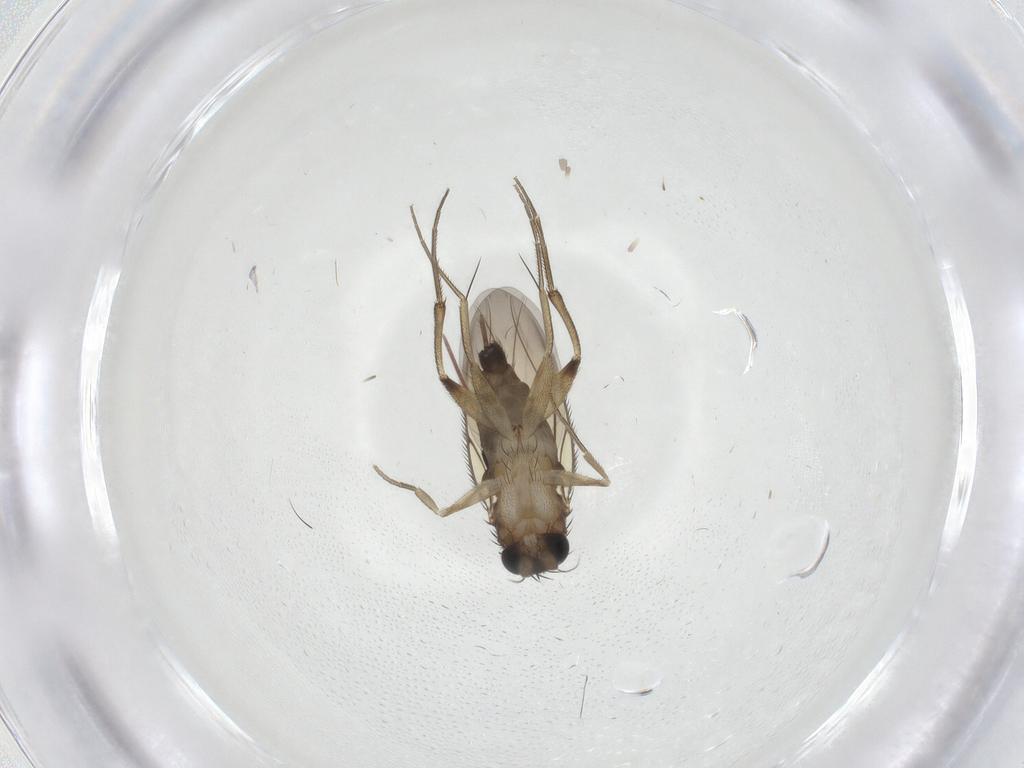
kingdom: Animalia
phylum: Arthropoda
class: Insecta
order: Diptera
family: Phoridae
